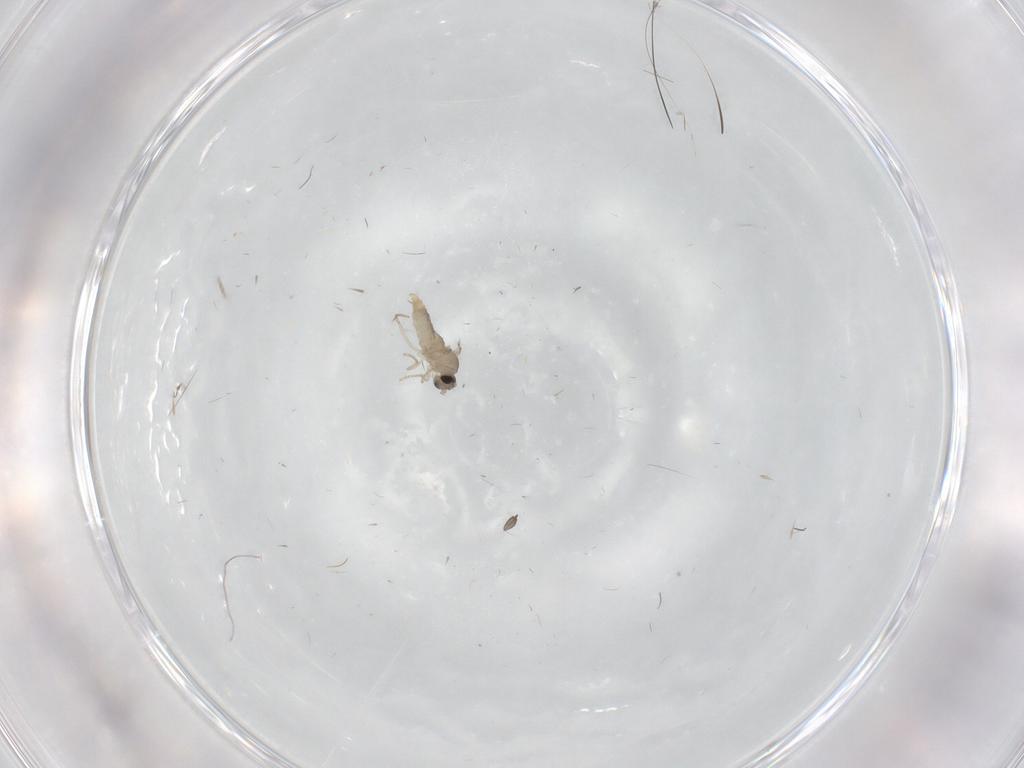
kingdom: Animalia
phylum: Arthropoda
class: Insecta
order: Diptera
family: Cecidomyiidae
